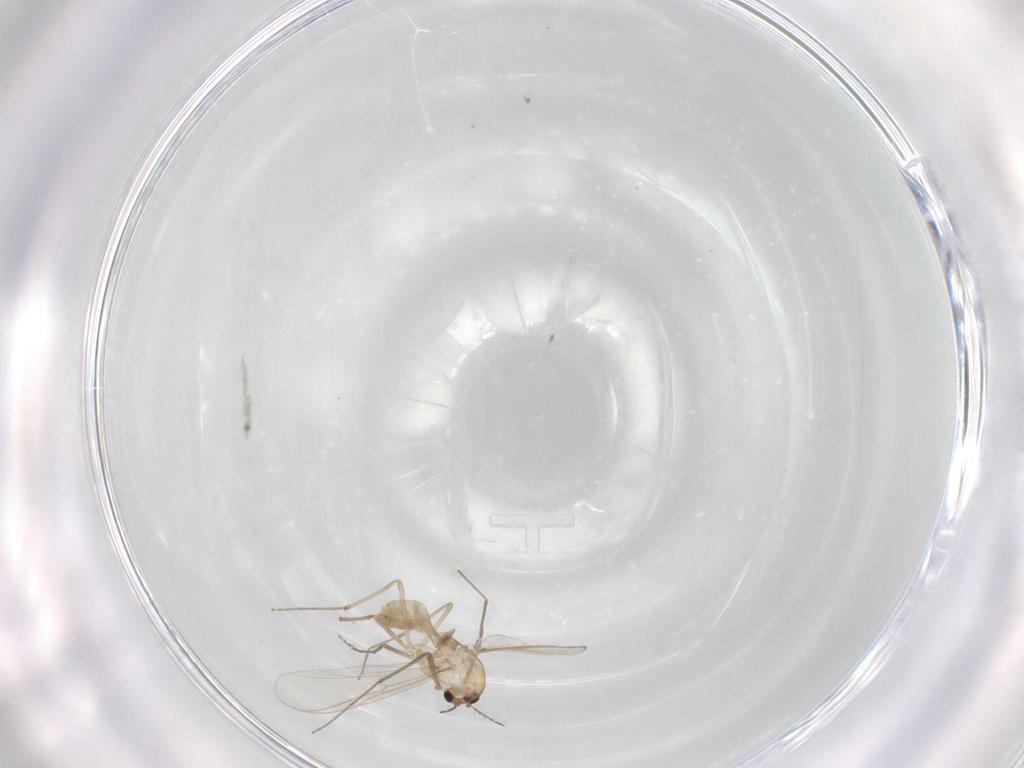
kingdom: Animalia
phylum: Arthropoda
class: Insecta
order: Diptera
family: Chironomidae
